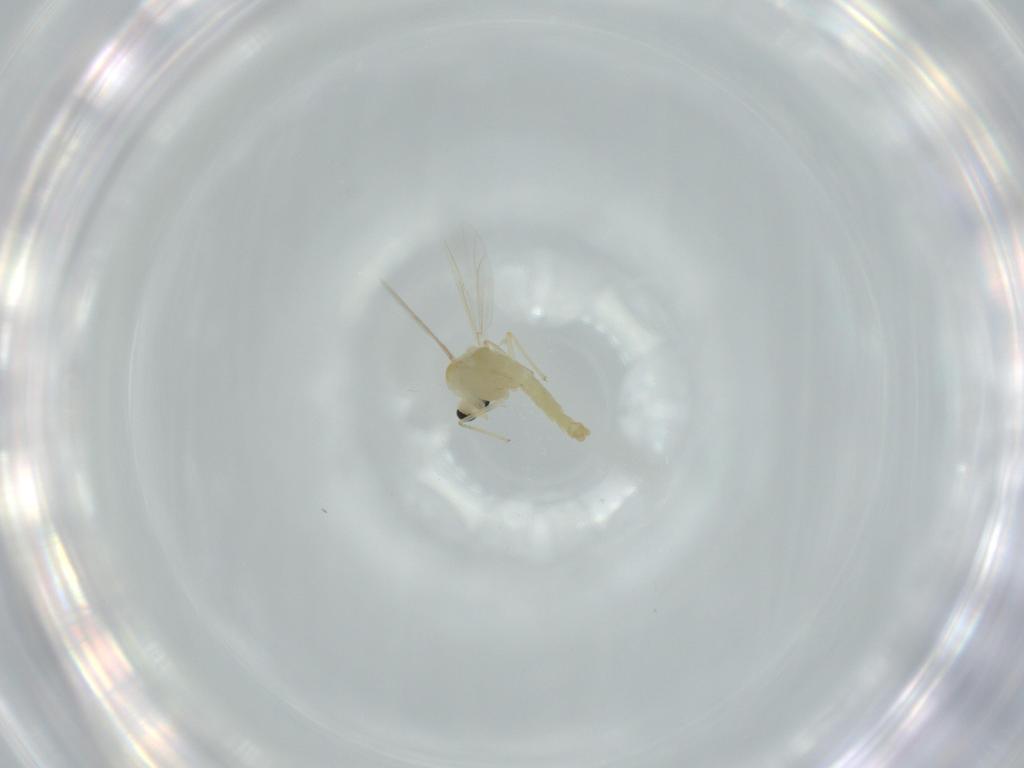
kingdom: Animalia
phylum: Arthropoda
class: Insecta
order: Diptera
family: Chironomidae
